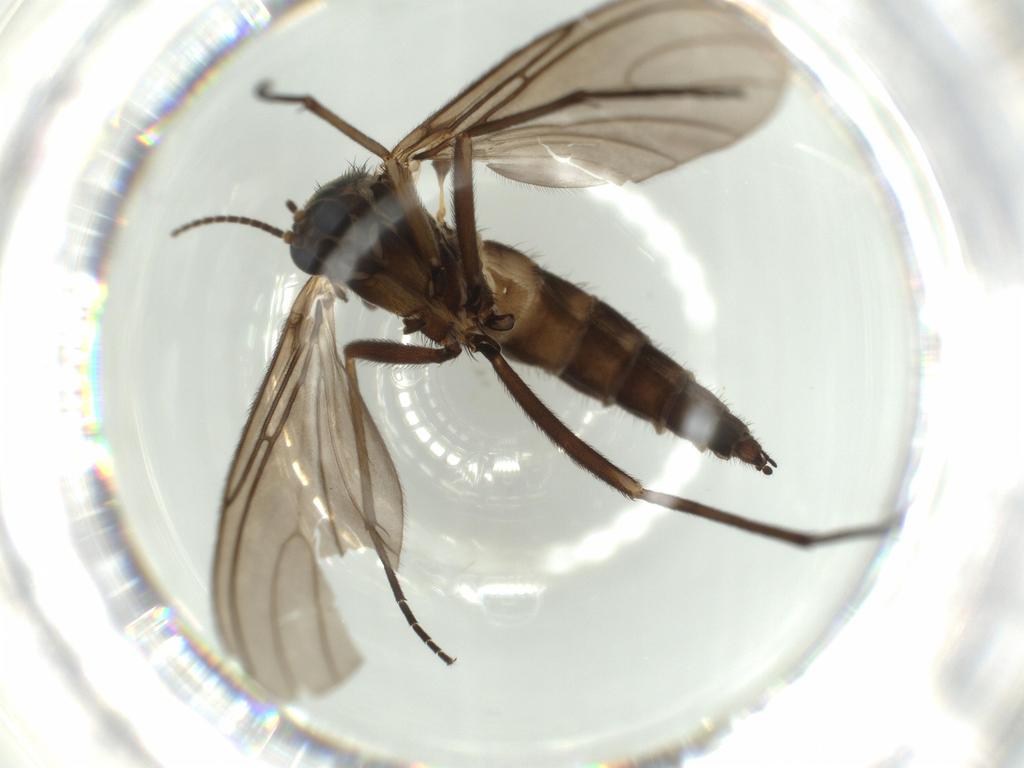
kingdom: Animalia
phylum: Arthropoda
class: Insecta
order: Diptera
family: Sciaridae
